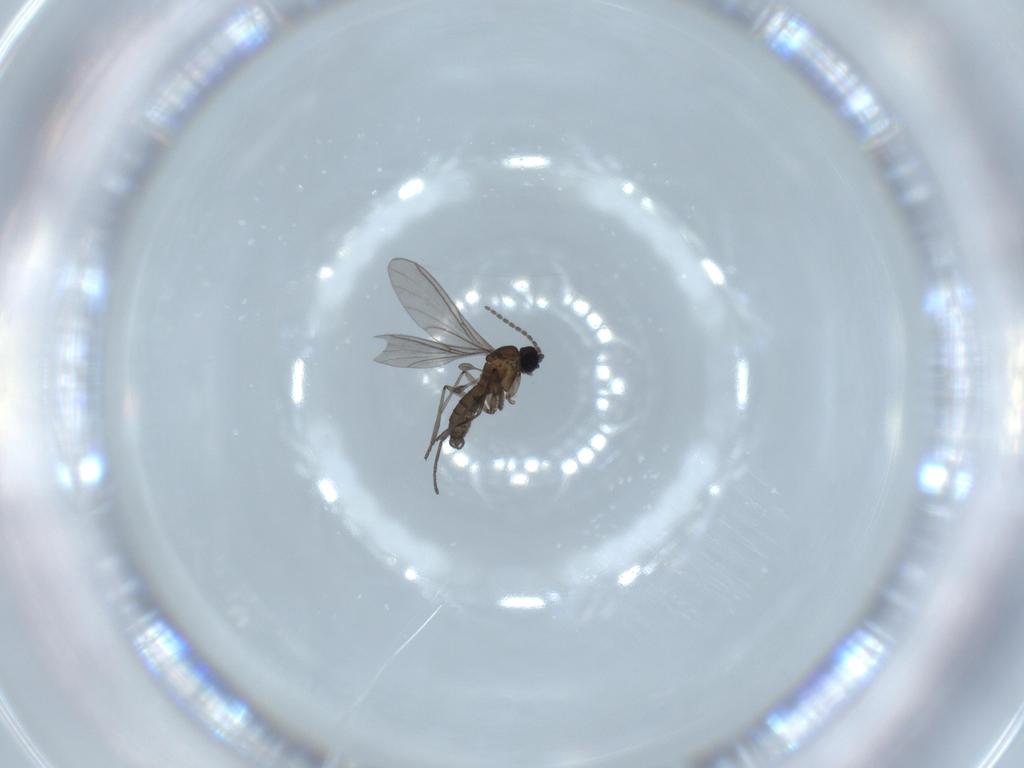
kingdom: Animalia
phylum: Arthropoda
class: Insecta
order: Diptera
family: Sciaridae
